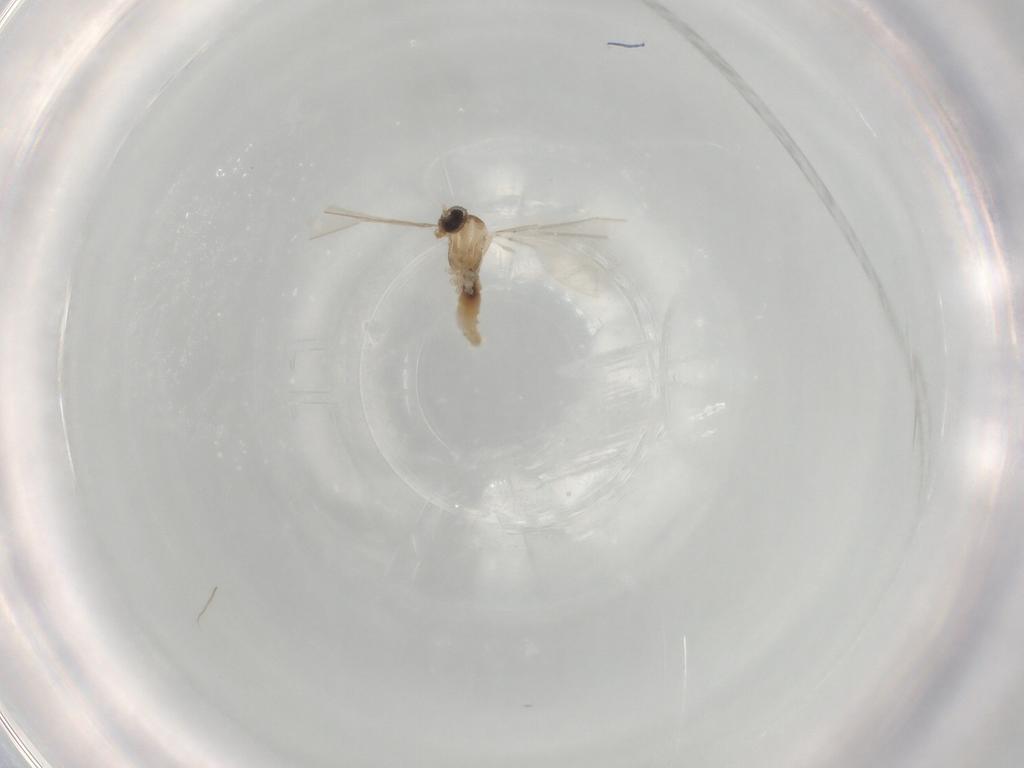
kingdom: Animalia
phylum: Arthropoda
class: Insecta
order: Diptera
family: Cecidomyiidae
